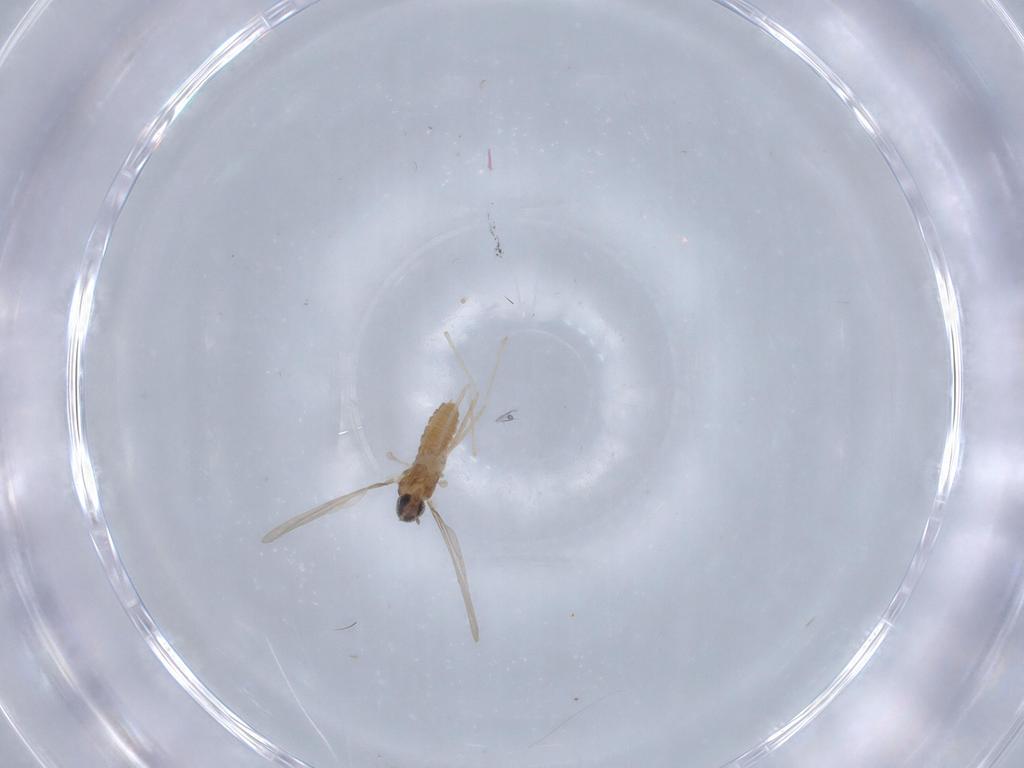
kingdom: Animalia
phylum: Arthropoda
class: Insecta
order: Diptera
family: Cecidomyiidae
